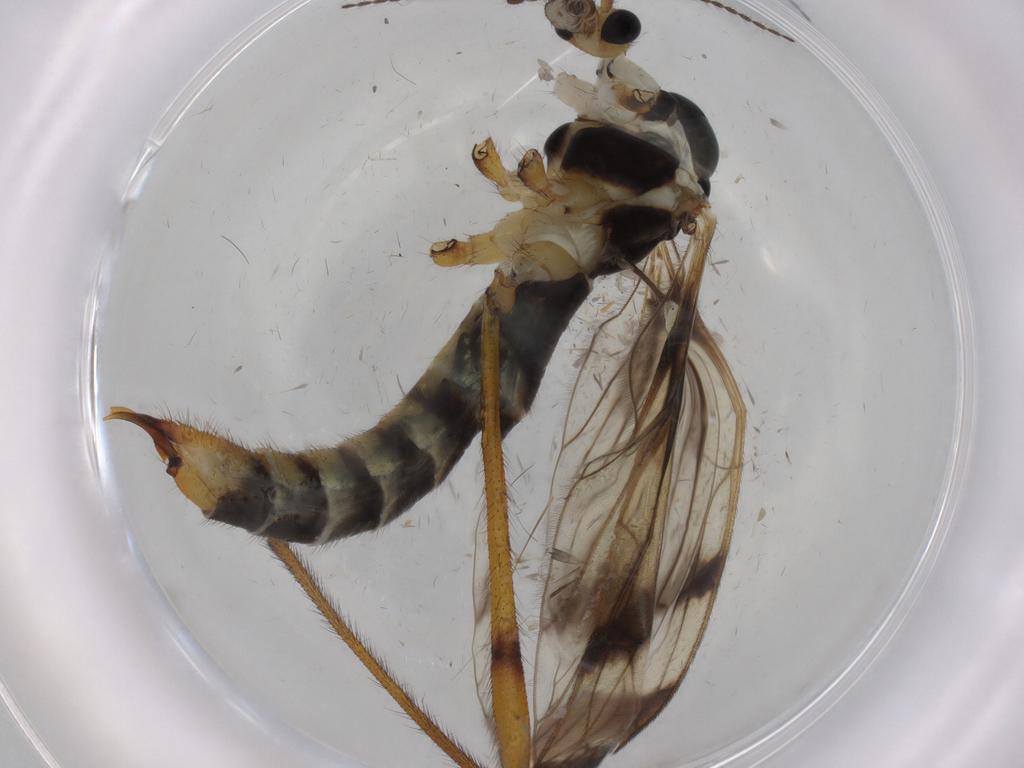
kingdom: Animalia
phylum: Arthropoda
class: Insecta
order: Diptera
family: Limoniidae
